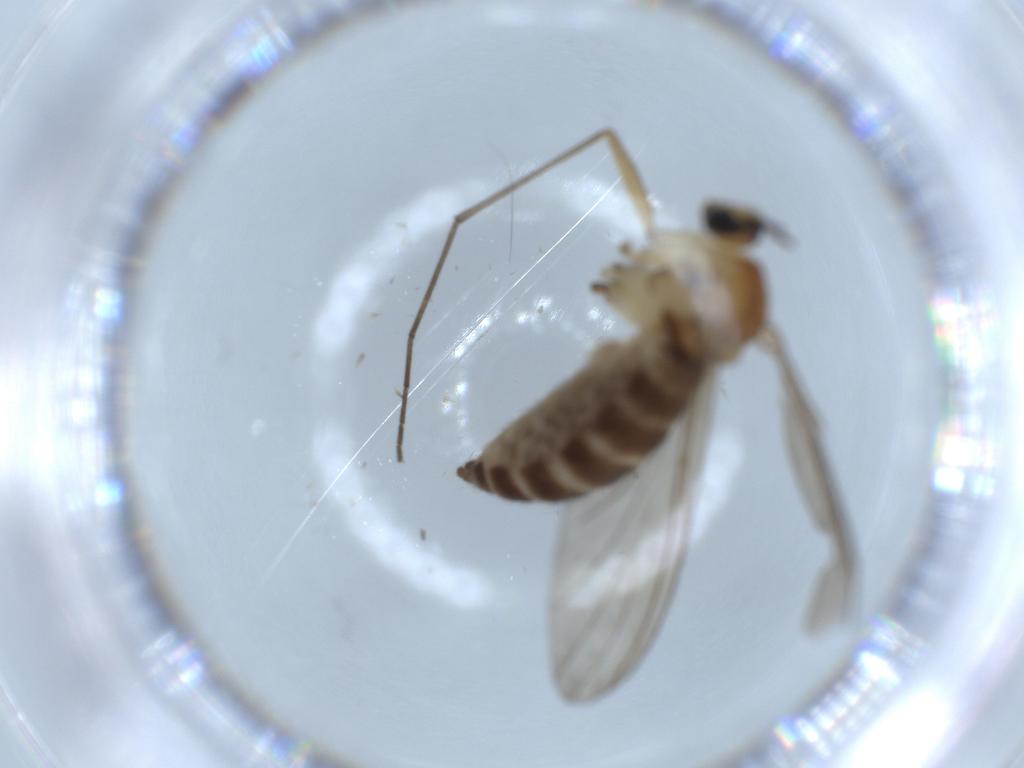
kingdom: Animalia
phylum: Arthropoda
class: Insecta
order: Diptera
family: Sciaridae
